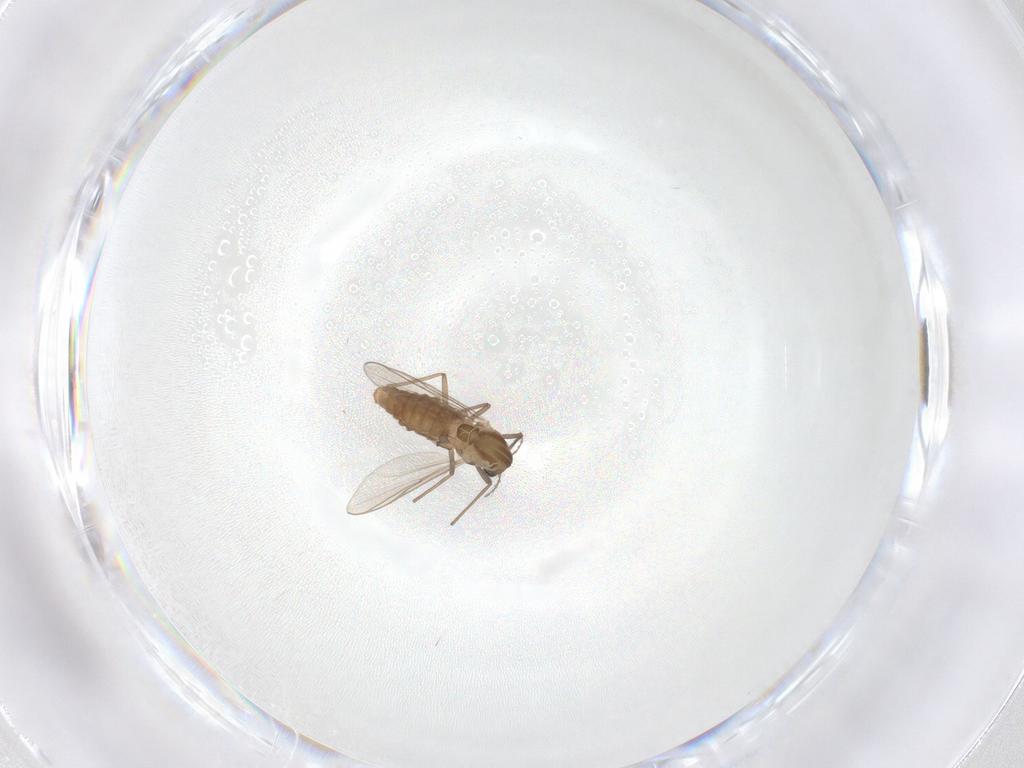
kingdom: Animalia
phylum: Arthropoda
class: Insecta
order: Diptera
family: Chironomidae
